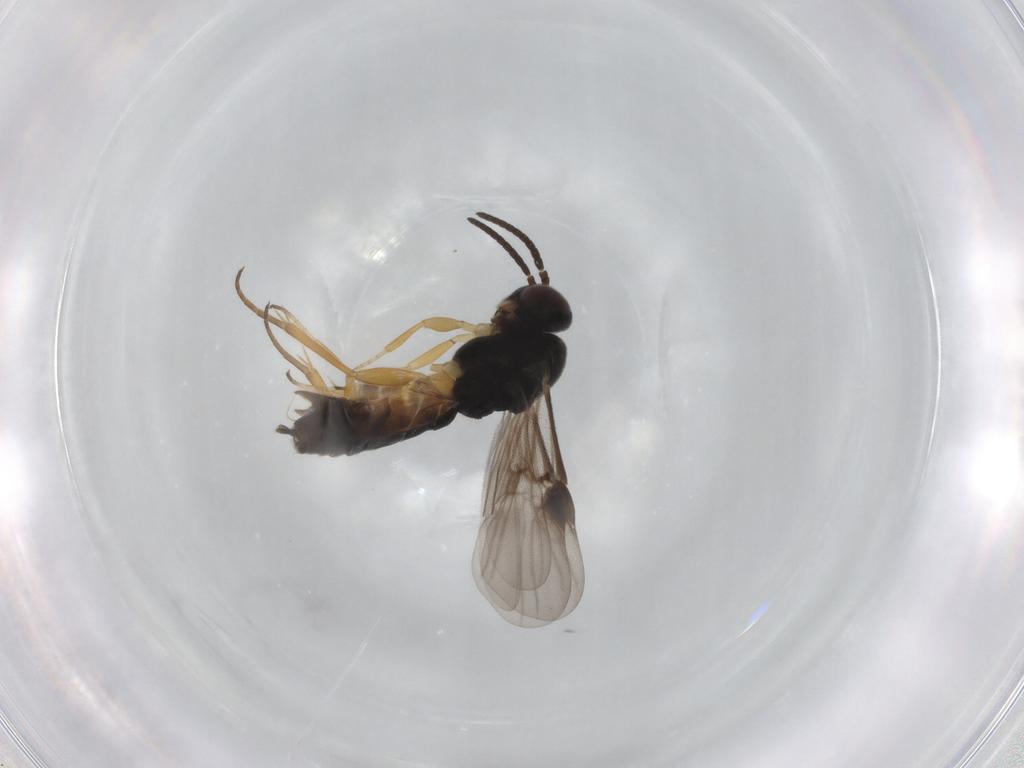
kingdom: Animalia
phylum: Arthropoda
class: Insecta
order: Hymenoptera
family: Braconidae
